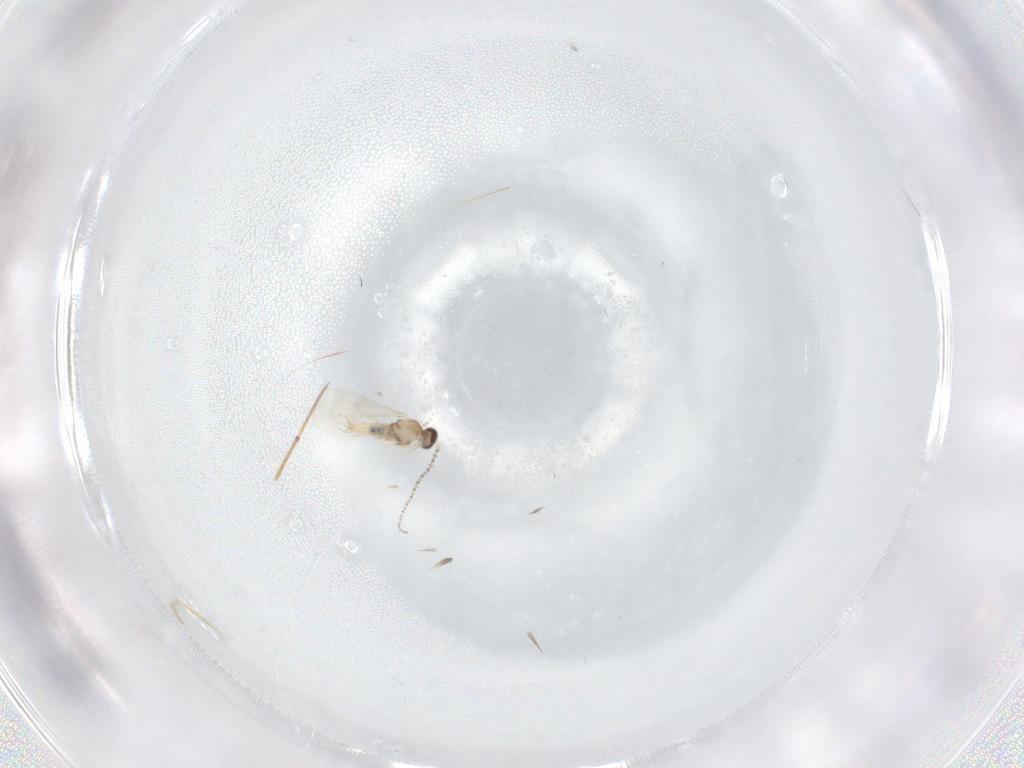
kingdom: Animalia
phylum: Arthropoda
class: Insecta
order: Diptera
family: Cecidomyiidae
